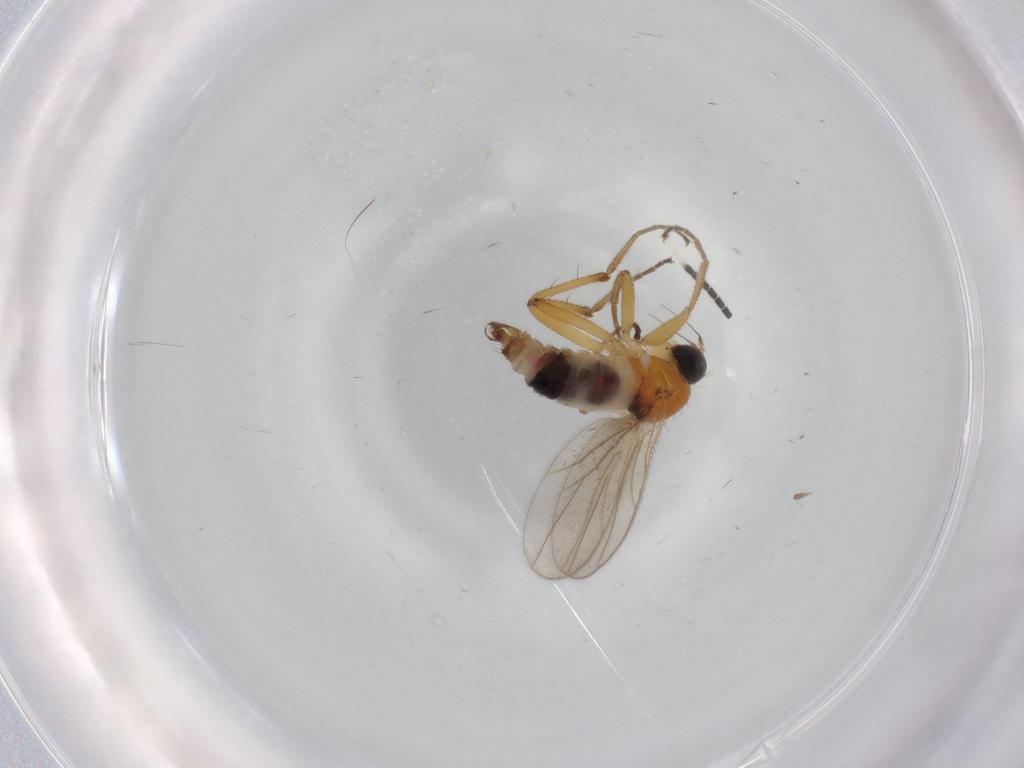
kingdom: Animalia
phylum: Arthropoda
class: Insecta
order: Diptera
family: Hybotidae
